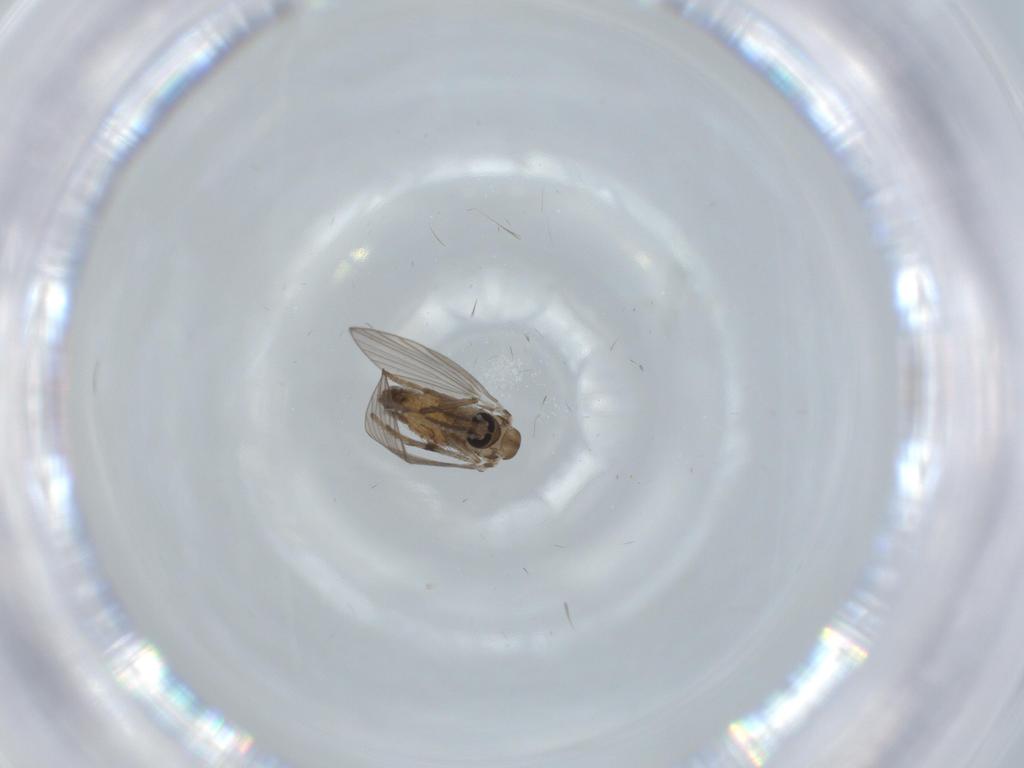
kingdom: Animalia
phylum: Arthropoda
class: Insecta
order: Diptera
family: Psychodidae
